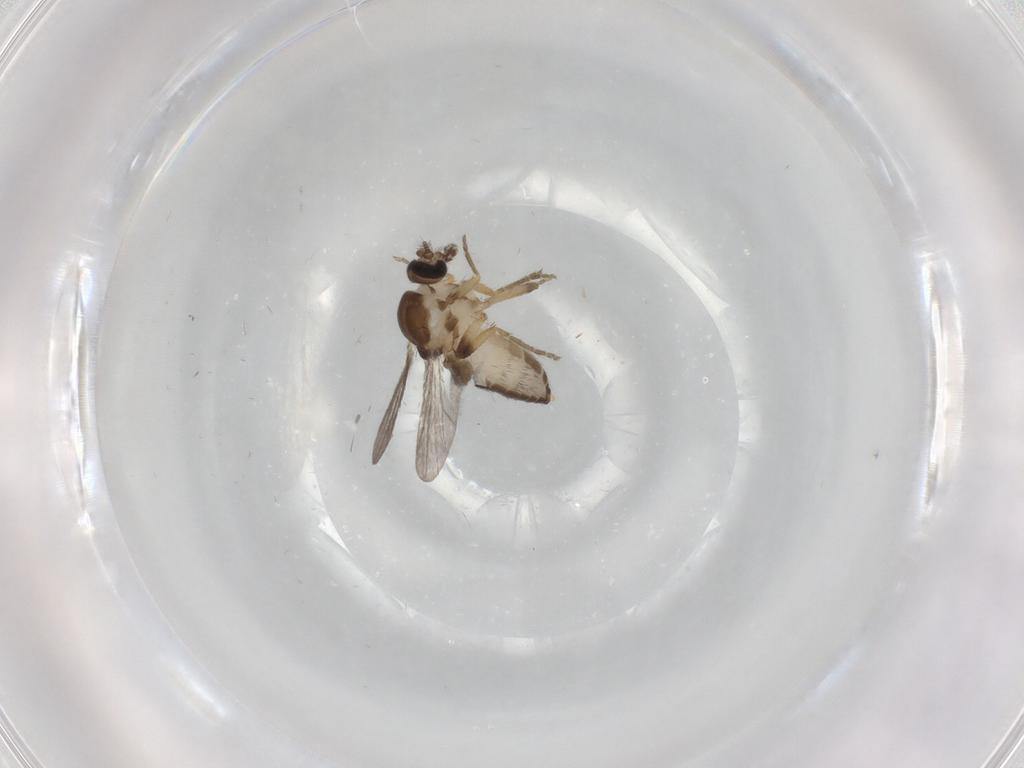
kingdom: Animalia
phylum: Arthropoda
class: Insecta
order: Diptera
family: Ceratopogonidae
